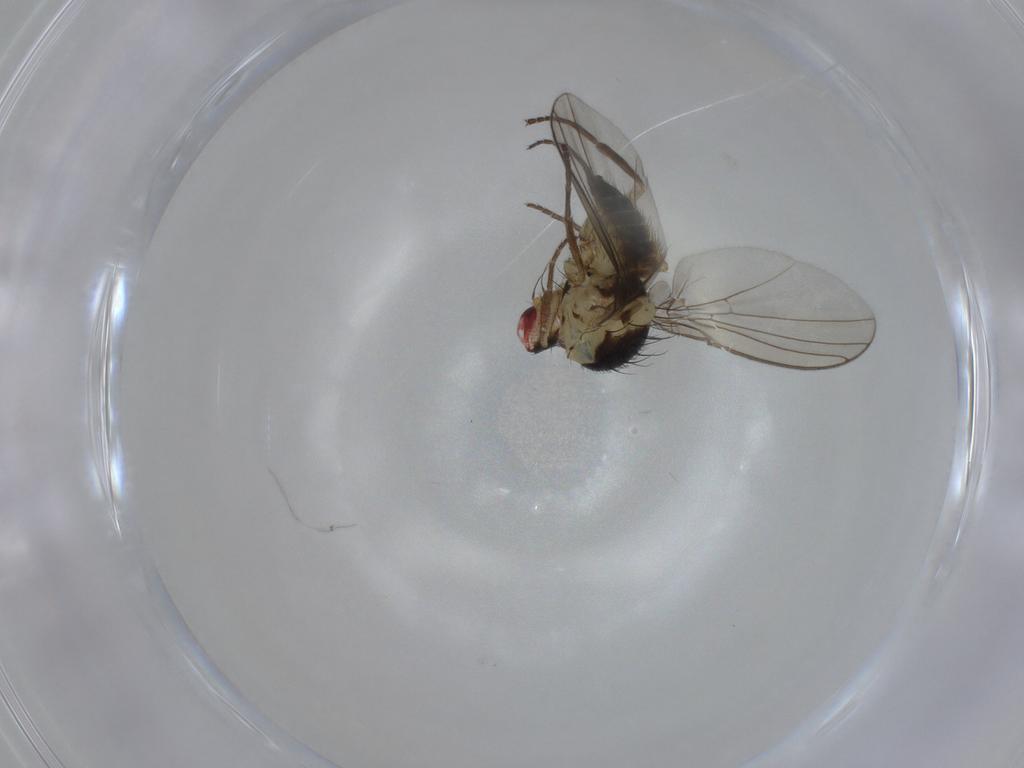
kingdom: Animalia
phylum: Arthropoda
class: Insecta
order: Diptera
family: Agromyzidae
